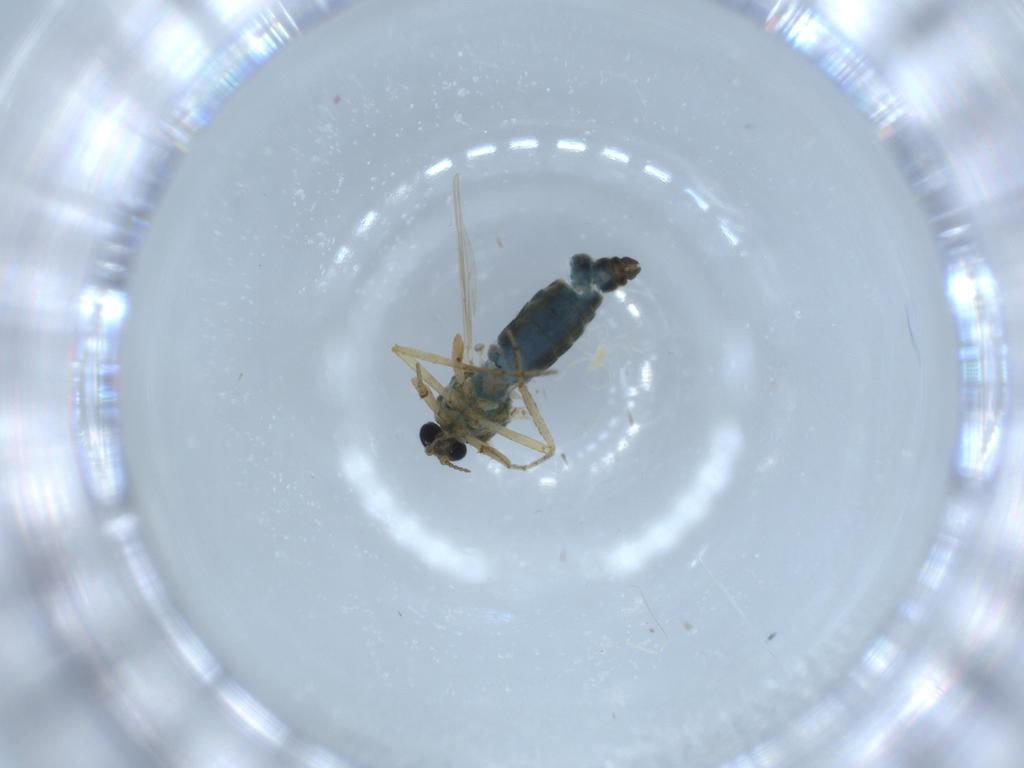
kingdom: Animalia
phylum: Arthropoda
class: Insecta
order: Diptera
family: Ceratopogonidae
